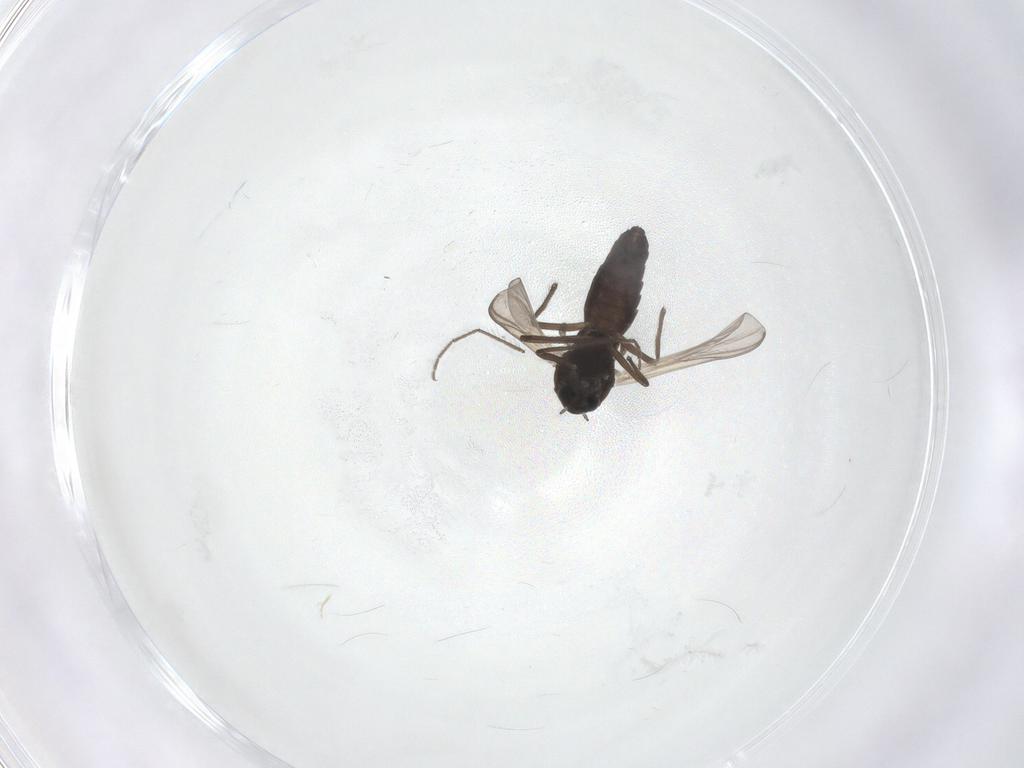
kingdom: Animalia
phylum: Arthropoda
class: Insecta
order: Diptera
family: Chironomidae
